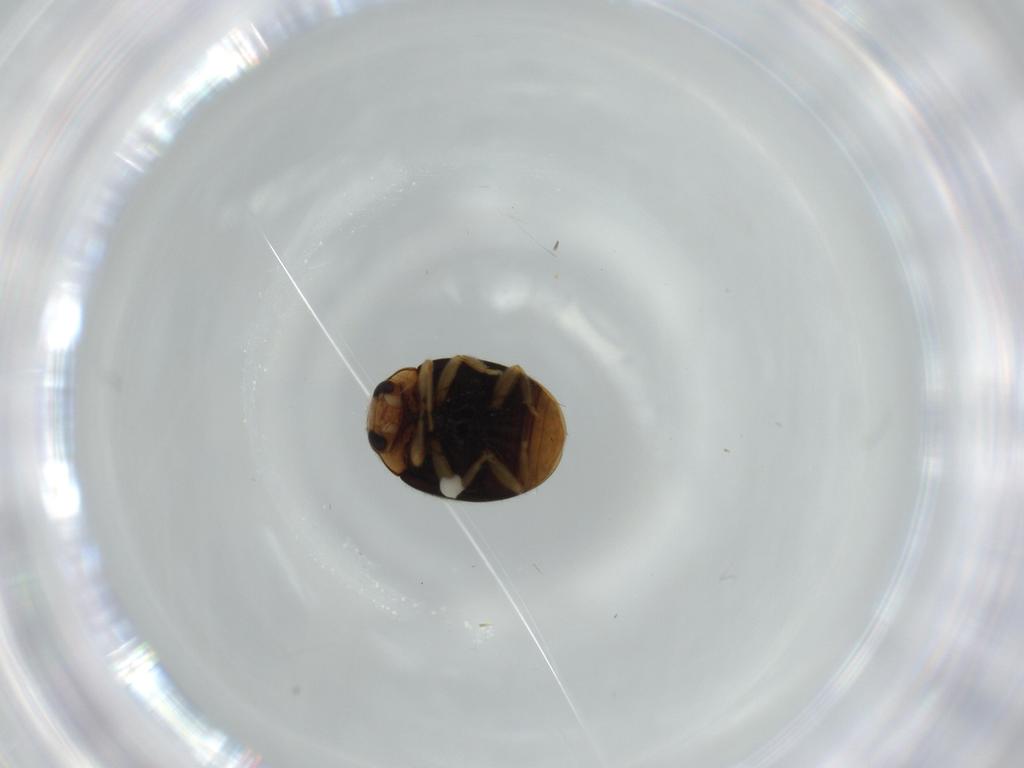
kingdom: Animalia
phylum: Arthropoda
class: Insecta
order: Coleoptera
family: Bostrichidae
